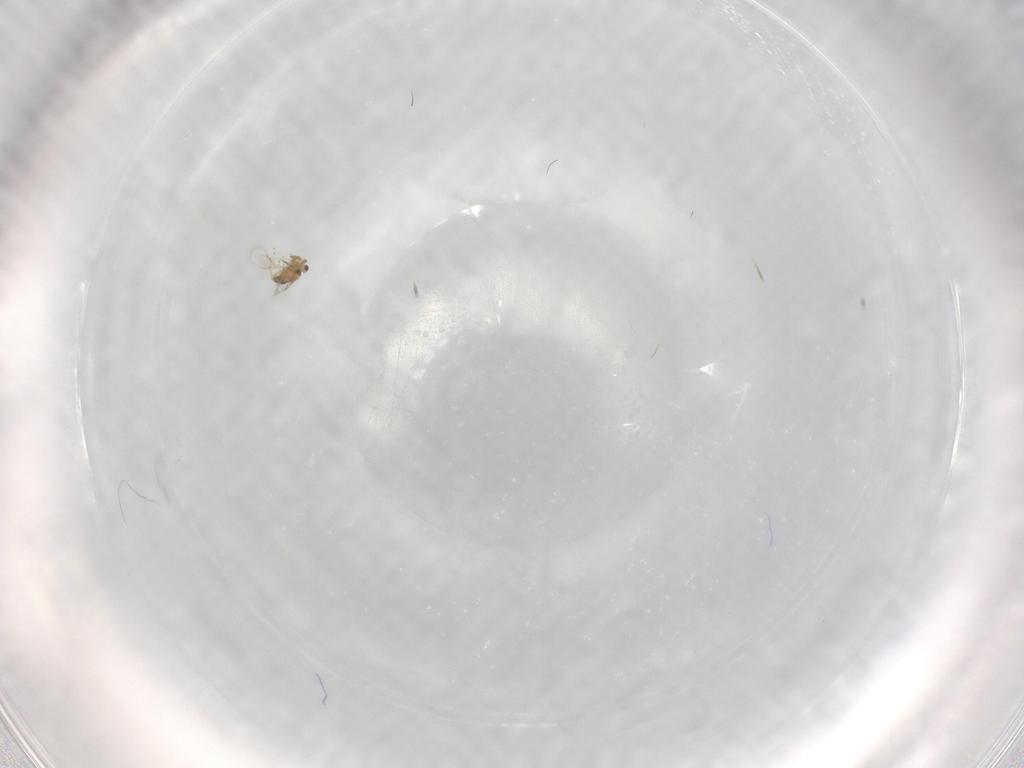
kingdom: Animalia
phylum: Arthropoda
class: Insecta
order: Hymenoptera
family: Aphelinidae
